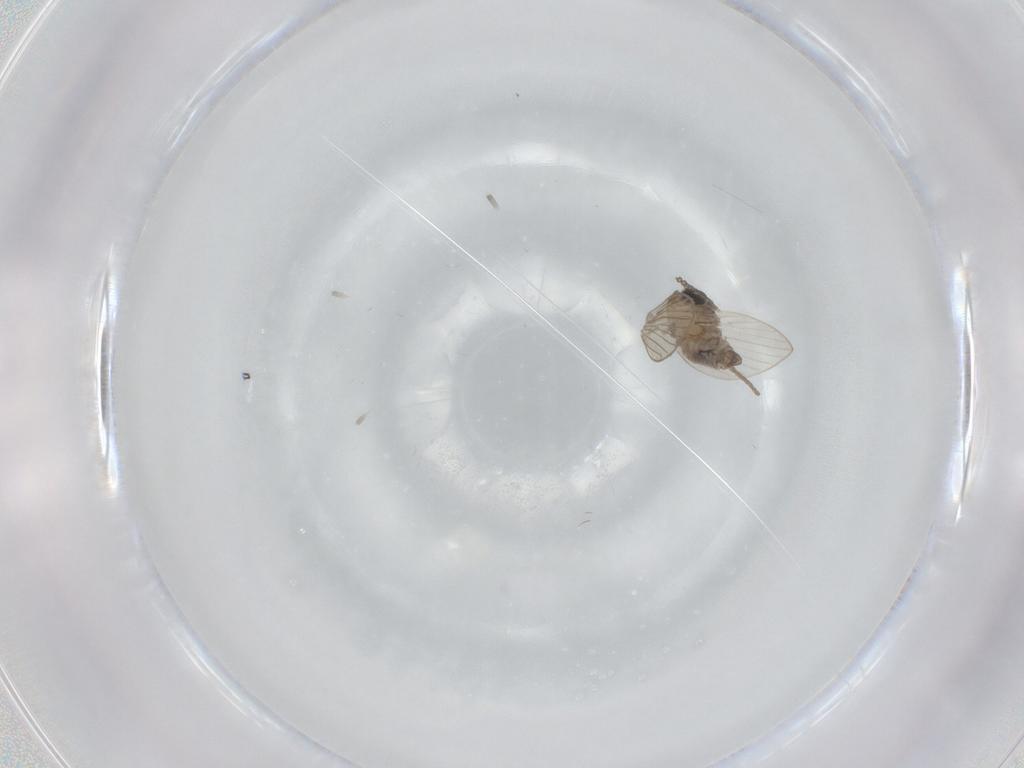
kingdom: Animalia
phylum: Arthropoda
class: Insecta
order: Diptera
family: Psychodidae
